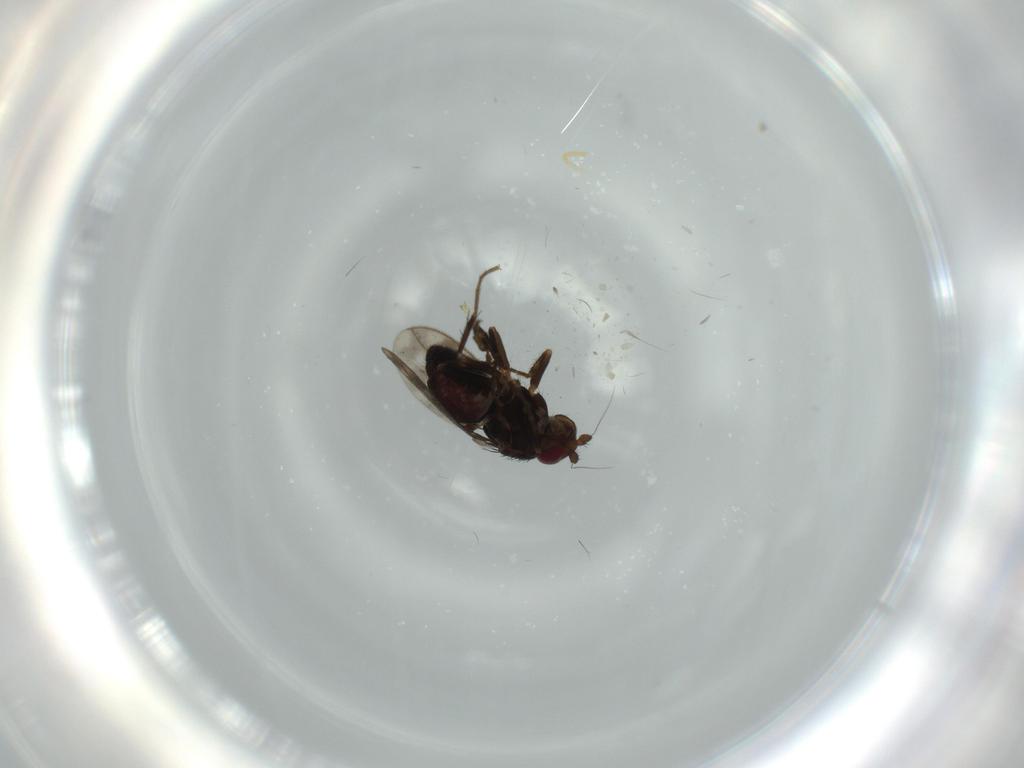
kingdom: Animalia
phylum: Arthropoda
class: Insecta
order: Diptera
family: Sphaeroceridae
